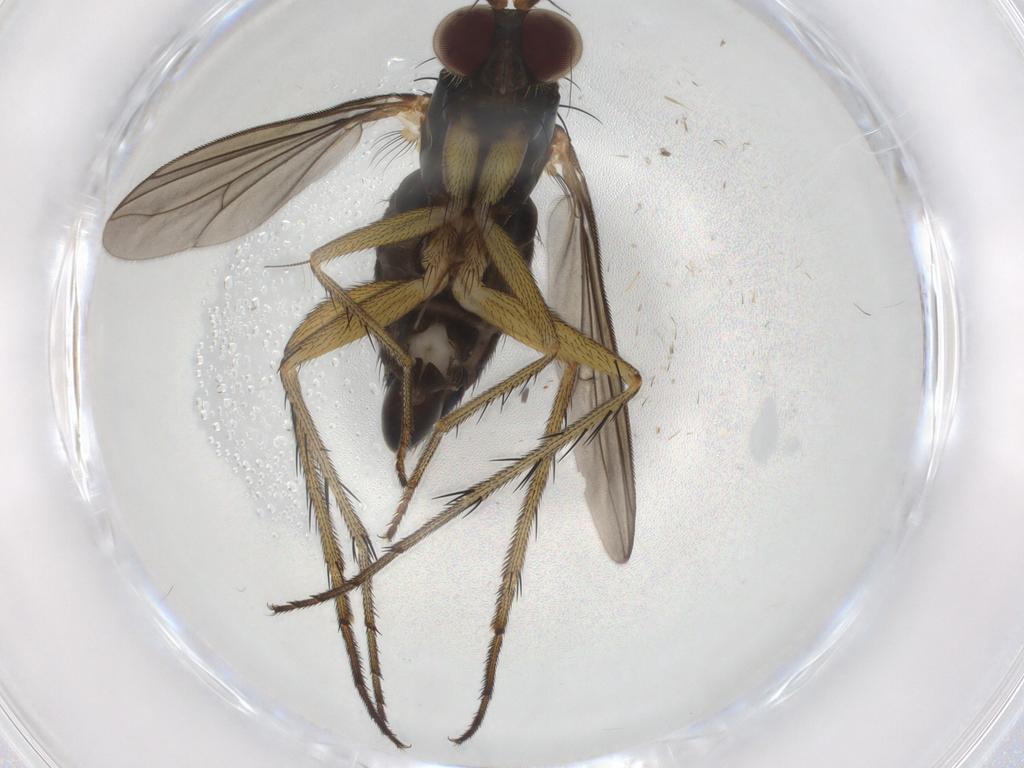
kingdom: Animalia
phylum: Arthropoda
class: Insecta
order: Diptera
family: Dolichopodidae
